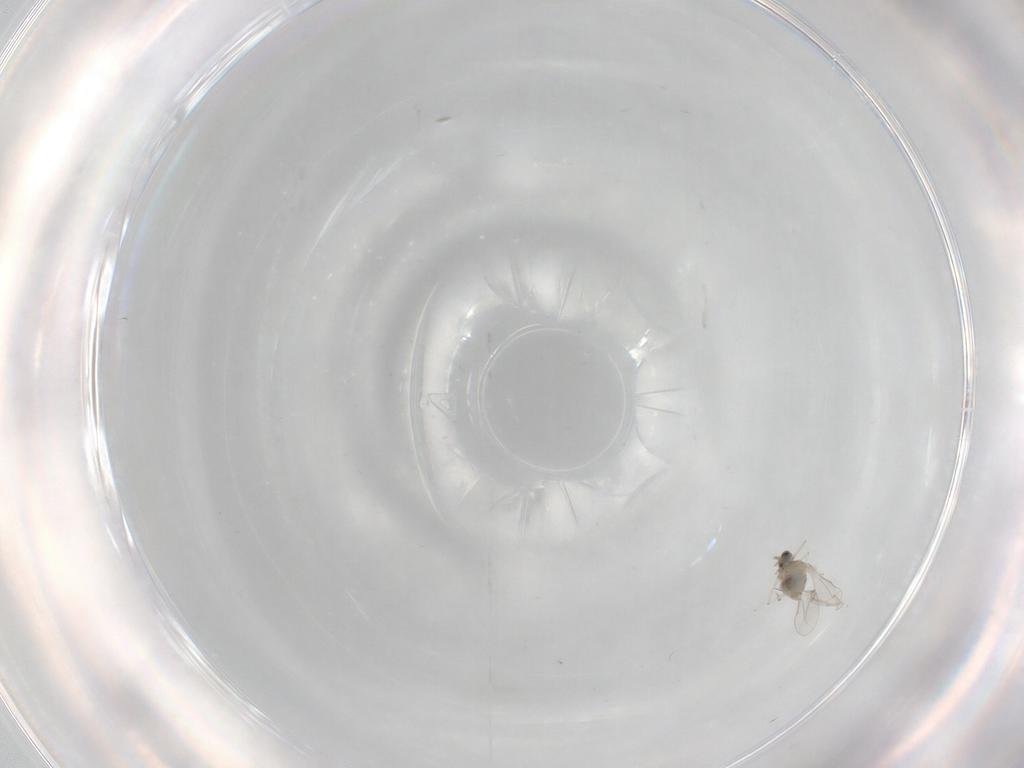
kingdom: Animalia
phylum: Arthropoda
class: Insecta
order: Diptera
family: Cecidomyiidae
